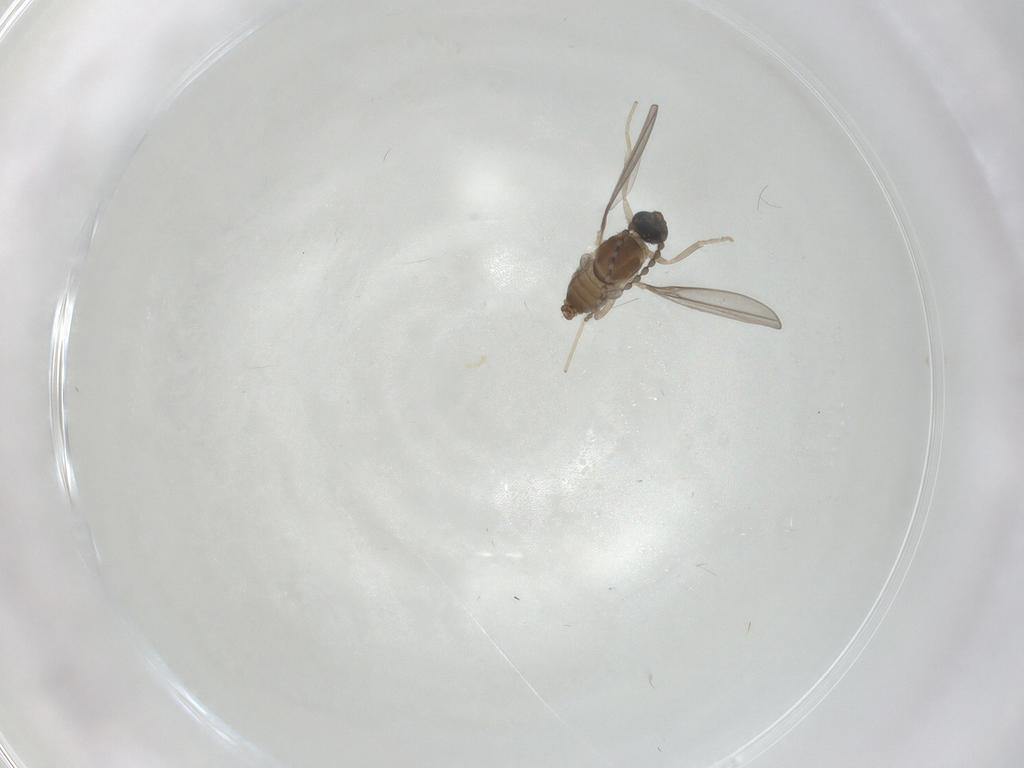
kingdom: Animalia
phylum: Arthropoda
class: Insecta
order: Diptera
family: Cecidomyiidae
